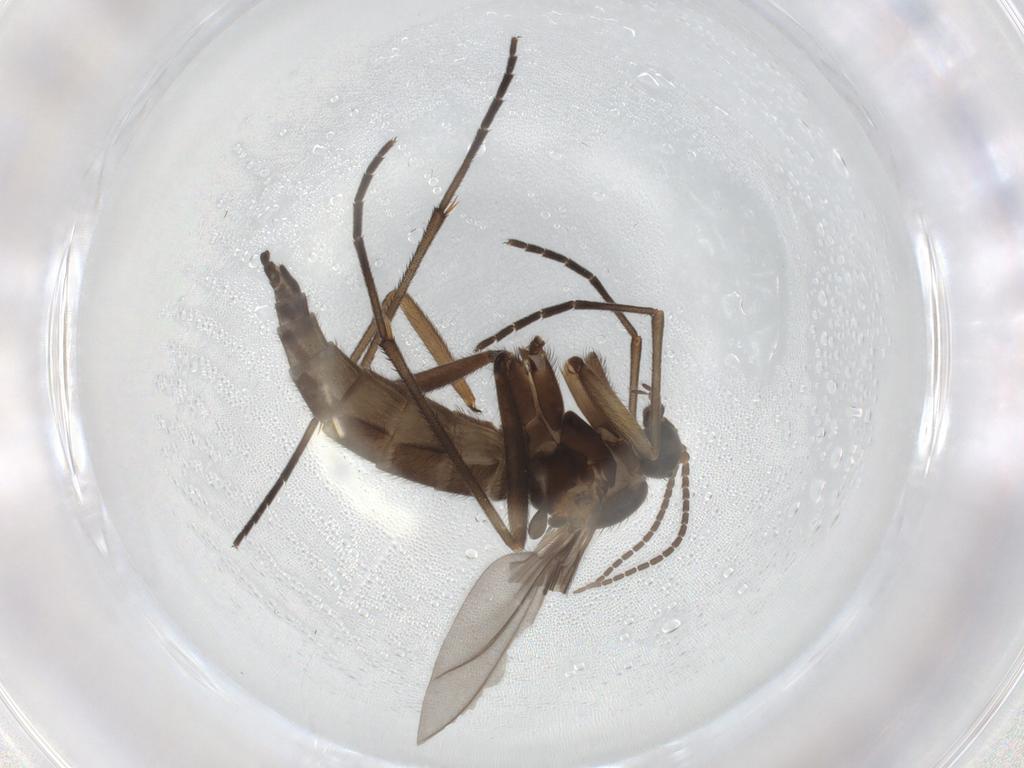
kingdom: Animalia
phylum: Arthropoda
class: Insecta
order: Diptera
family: Sciaridae
